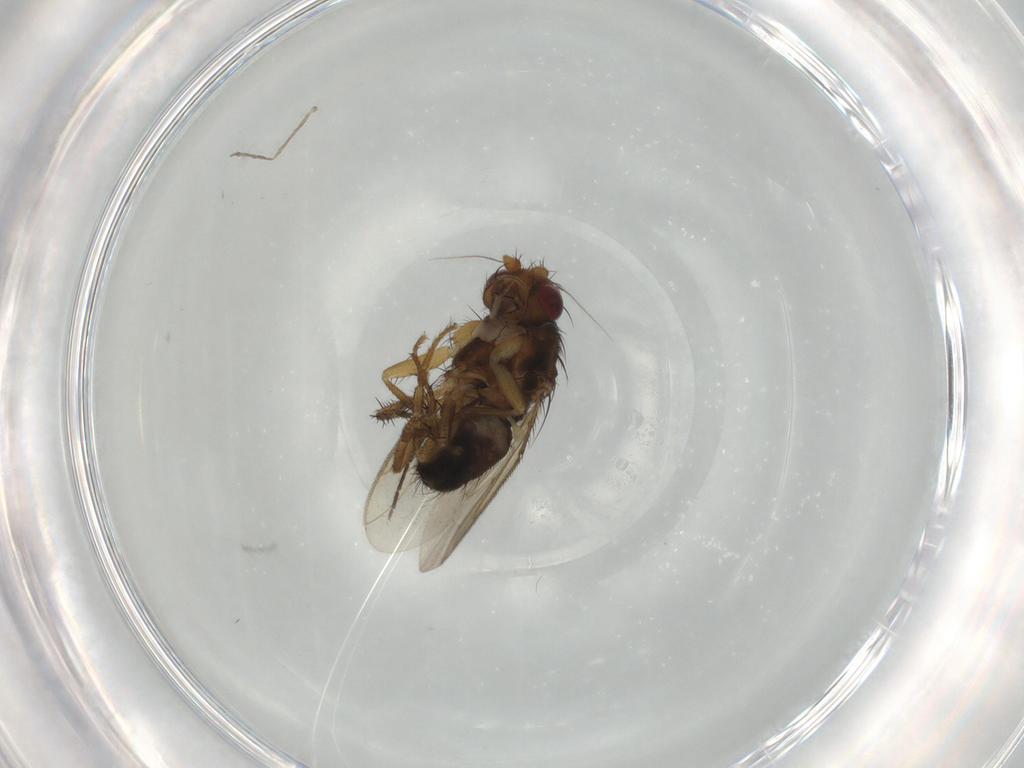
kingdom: Animalia
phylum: Arthropoda
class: Insecta
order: Diptera
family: Sphaeroceridae
